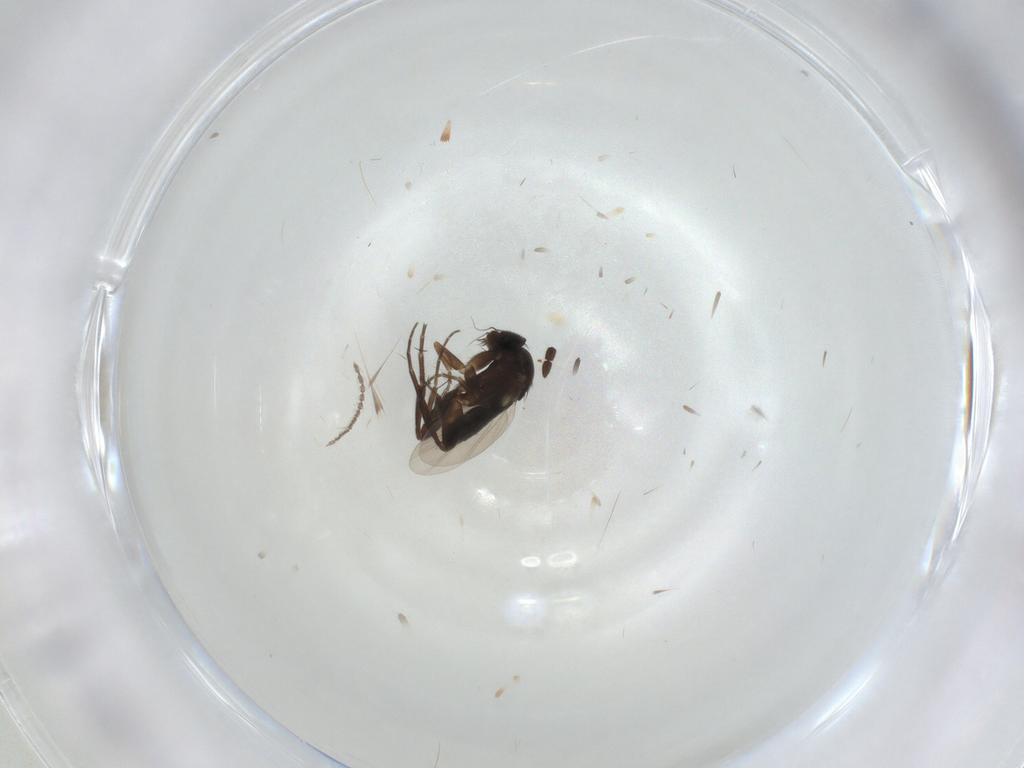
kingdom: Animalia
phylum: Arthropoda
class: Insecta
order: Diptera
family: Phoridae
